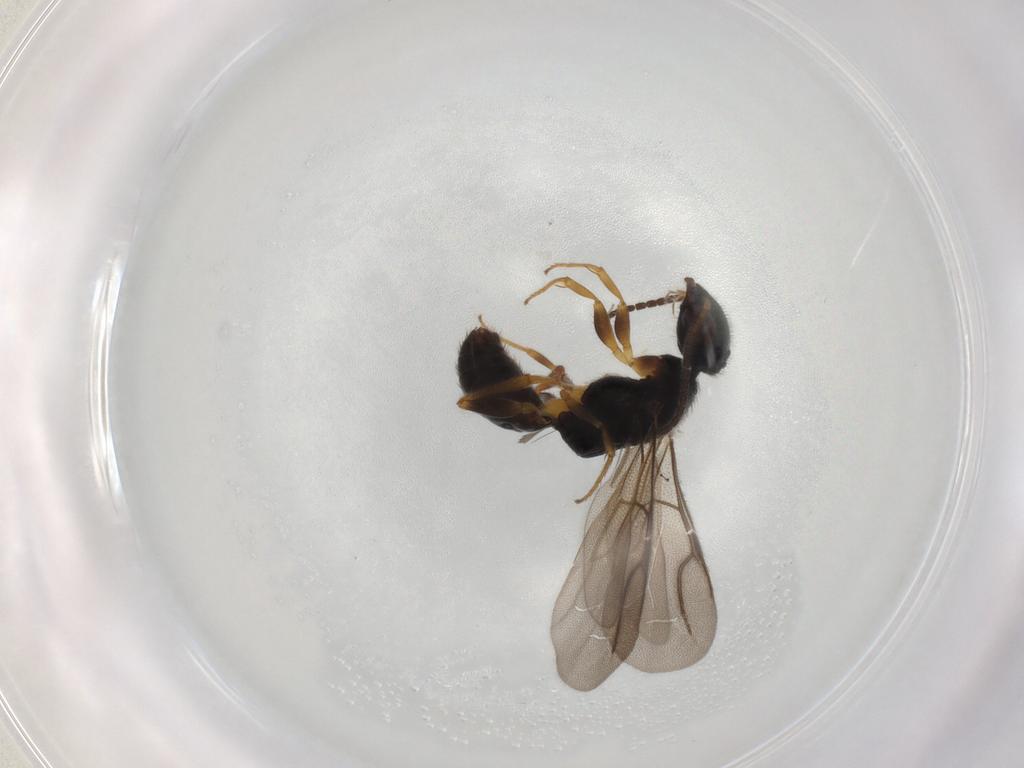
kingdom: Animalia
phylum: Arthropoda
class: Insecta
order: Hymenoptera
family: Bethylidae
